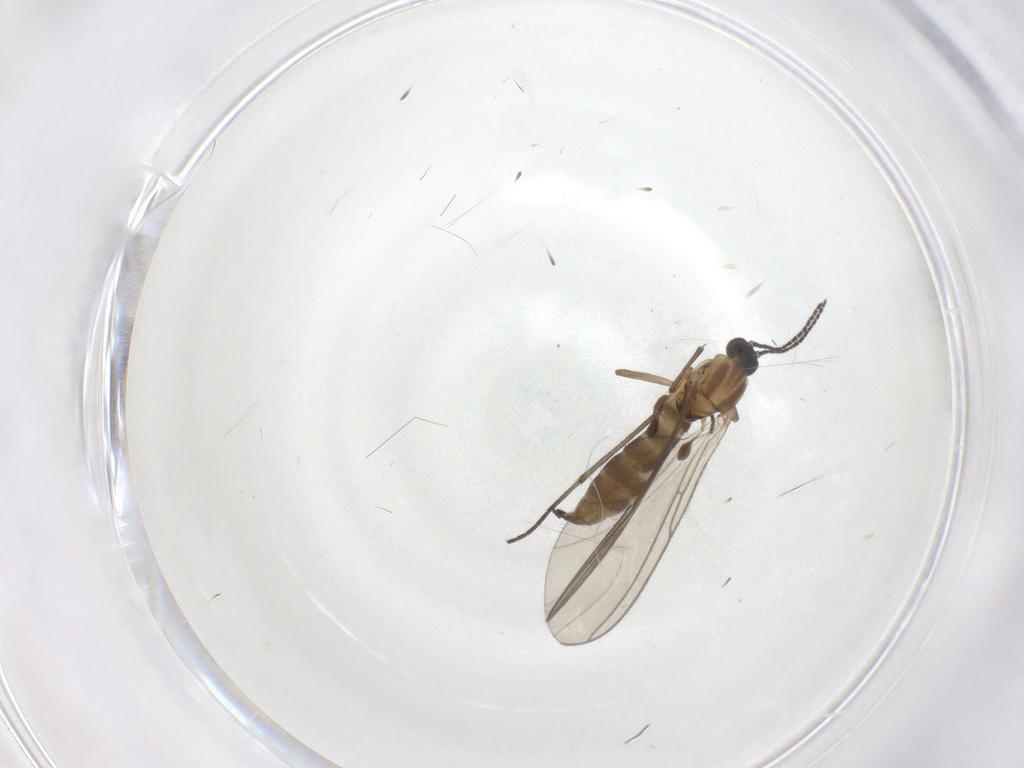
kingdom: Animalia
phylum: Arthropoda
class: Insecta
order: Diptera
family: Sciaridae
